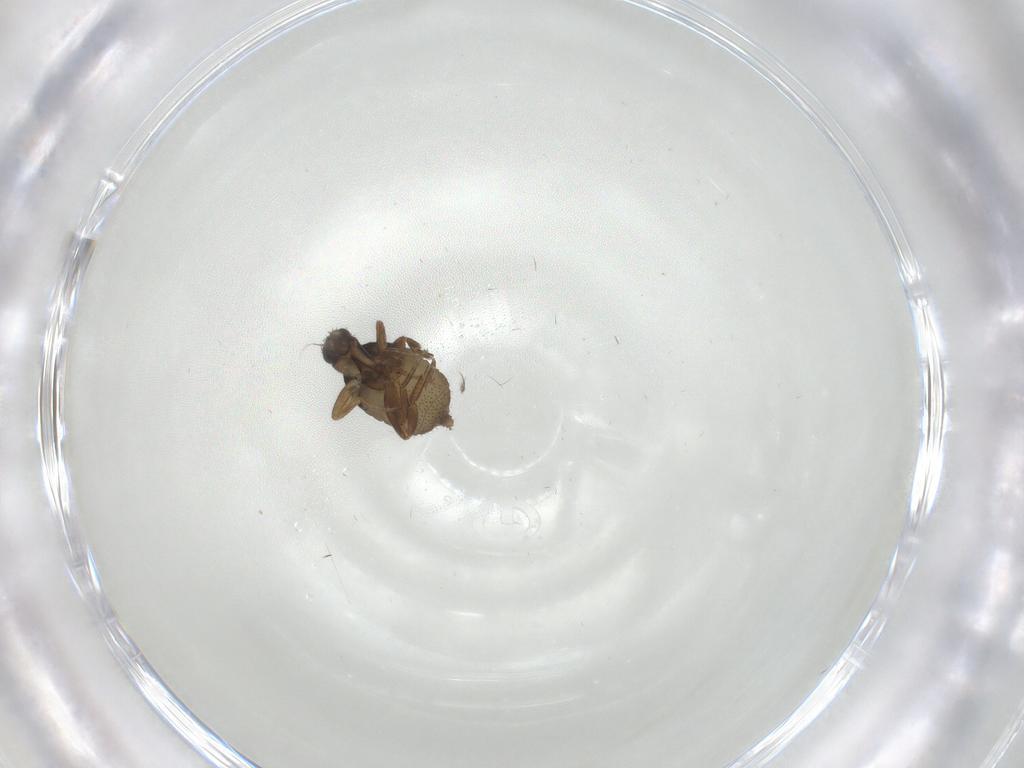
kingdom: Animalia
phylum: Arthropoda
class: Insecta
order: Diptera
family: Phoridae
